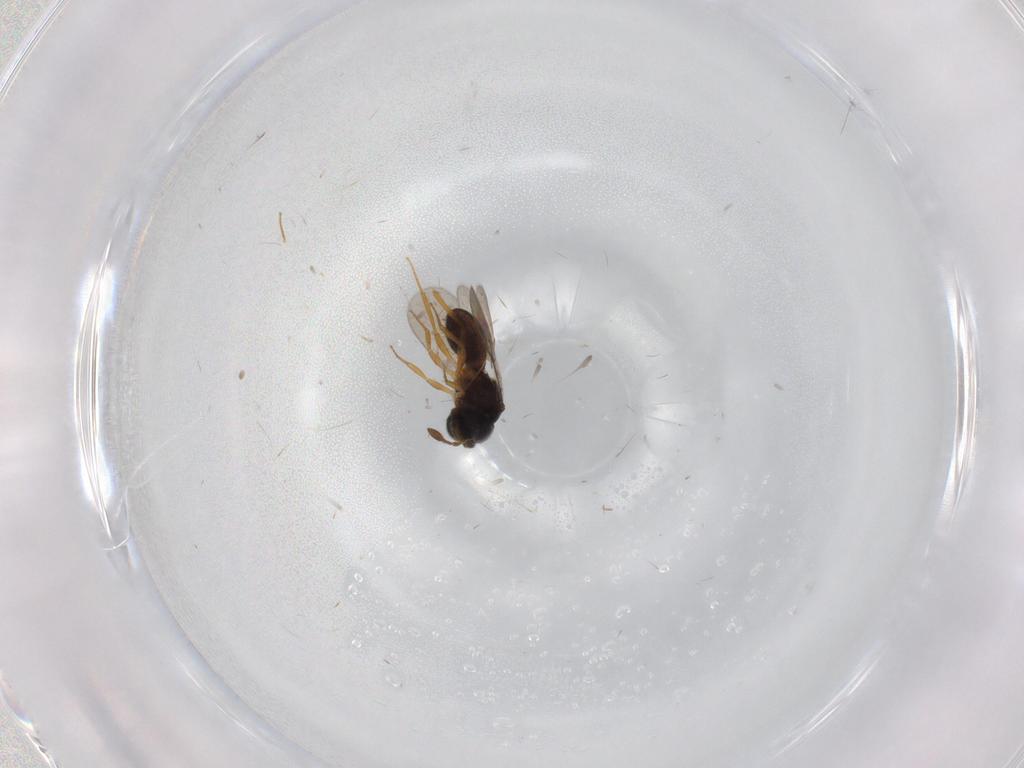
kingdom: Animalia
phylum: Arthropoda
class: Insecta
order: Hymenoptera
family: Scelionidae
